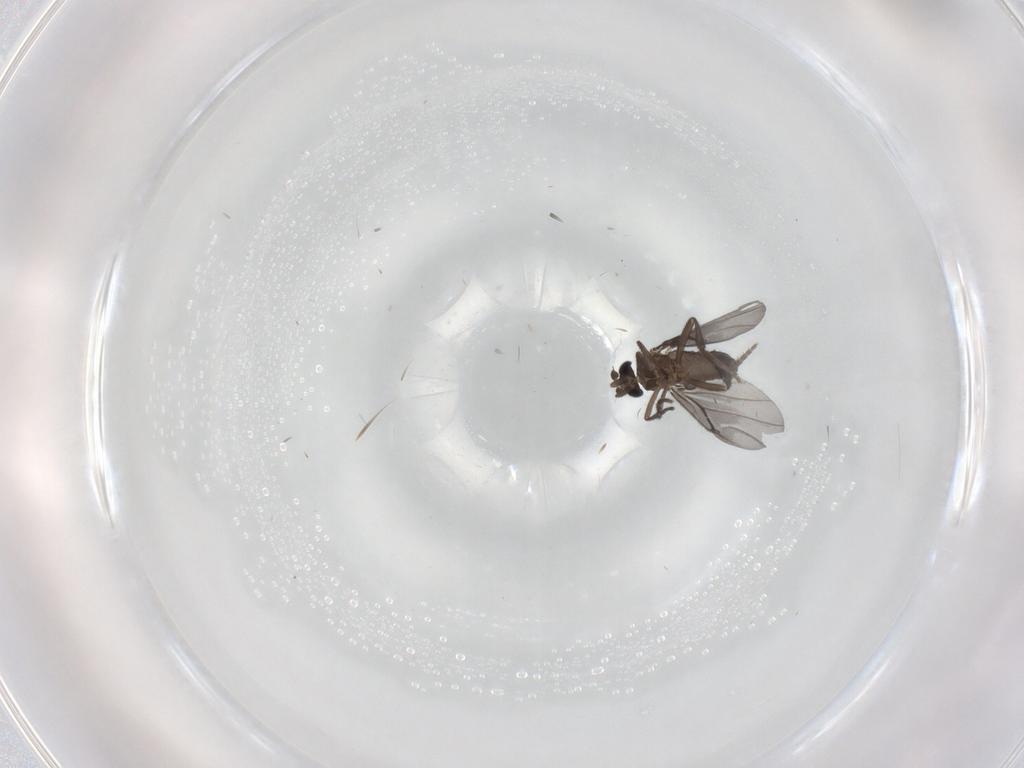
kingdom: Animalia
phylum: Arthropoda
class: Insecta
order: Diptera
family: Phoridae
